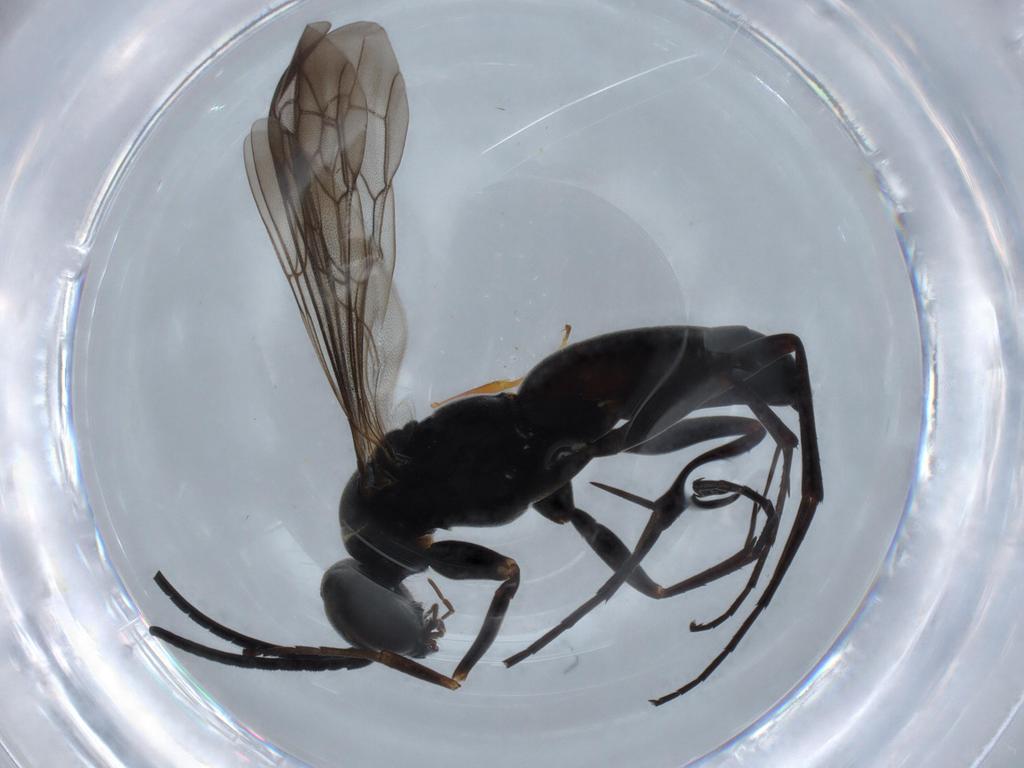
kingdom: Animalia
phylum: Arthropoda
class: Insecta
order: Hymenoptera
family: Pompilidae
